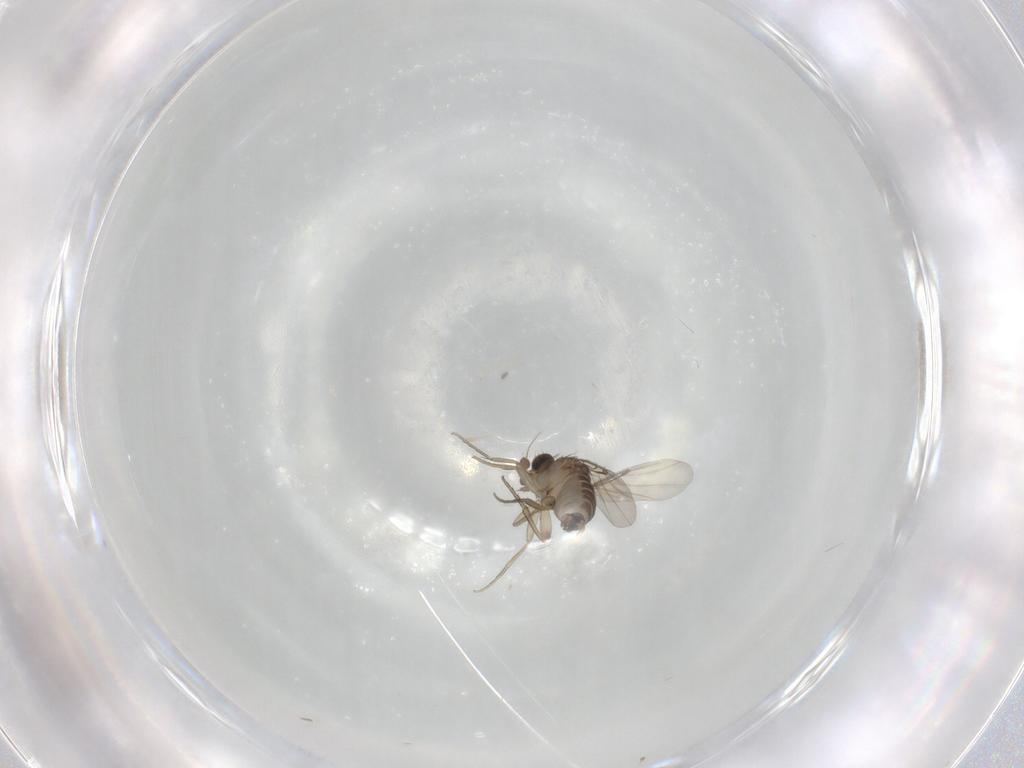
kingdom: Animalia
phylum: Arthropoda
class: Insecta
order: Diptera
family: Phoridae
